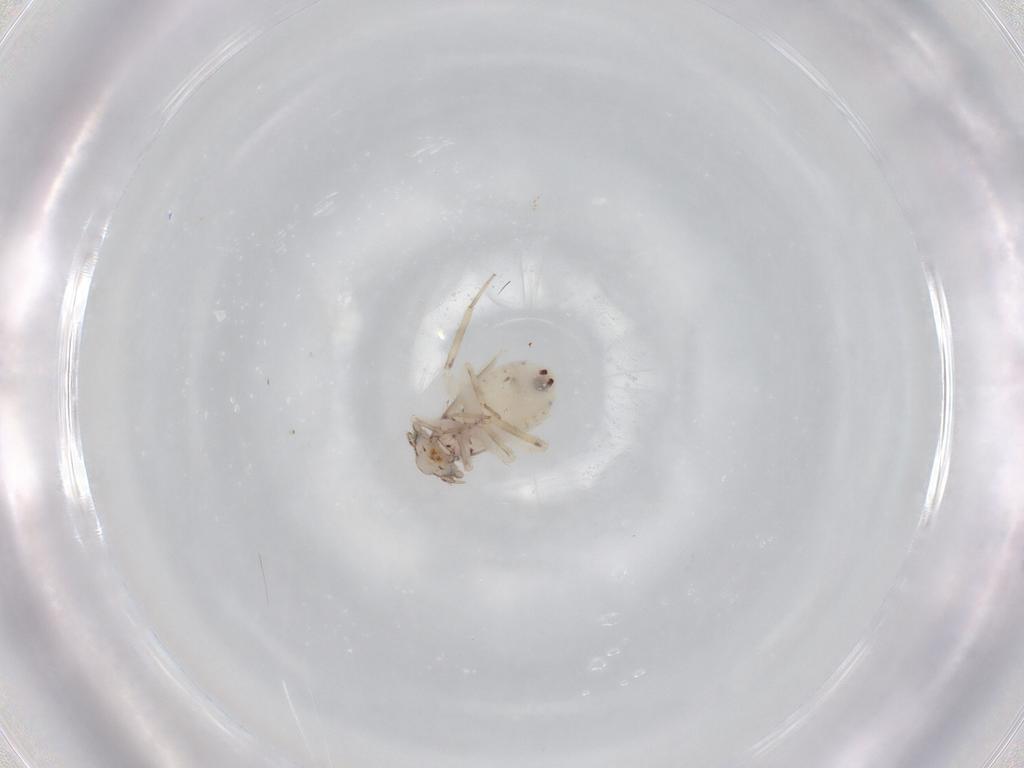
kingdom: Animalia
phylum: Arthropoda
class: Insecta
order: Psocodea
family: Lepidopsocidae
